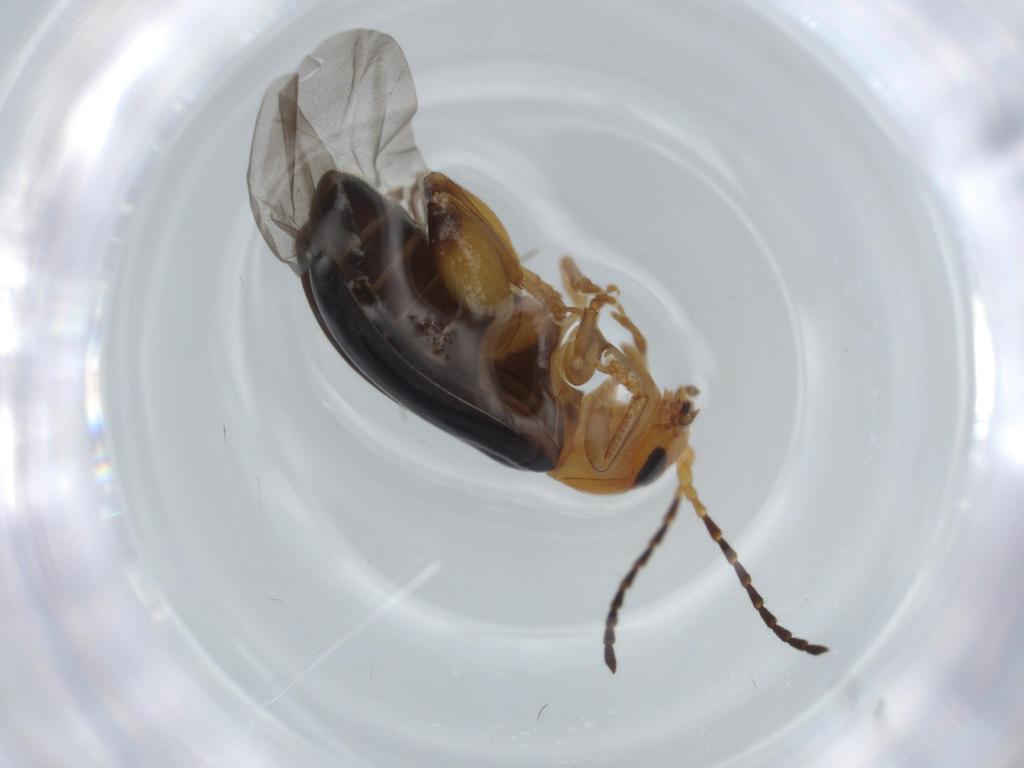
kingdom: Animalia
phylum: Arthropoda
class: Insecta
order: Coleoptera
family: Chrysomelidae
